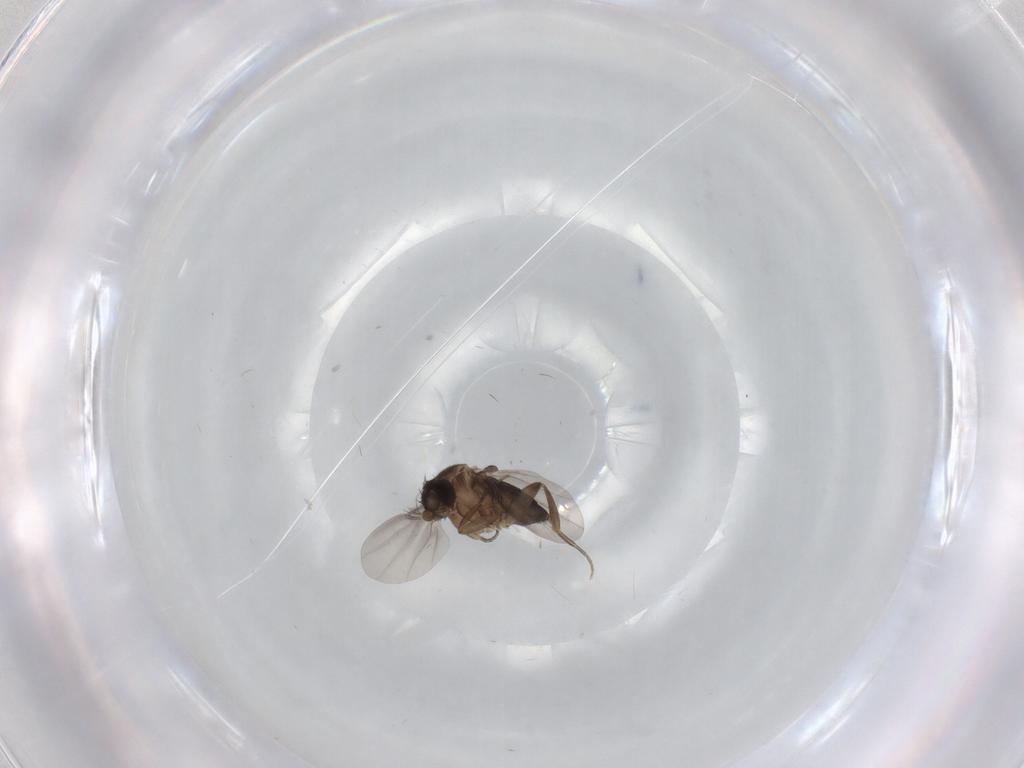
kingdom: Animalia
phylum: Arthropoda
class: Insecta
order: Diptera
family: Phoridae
